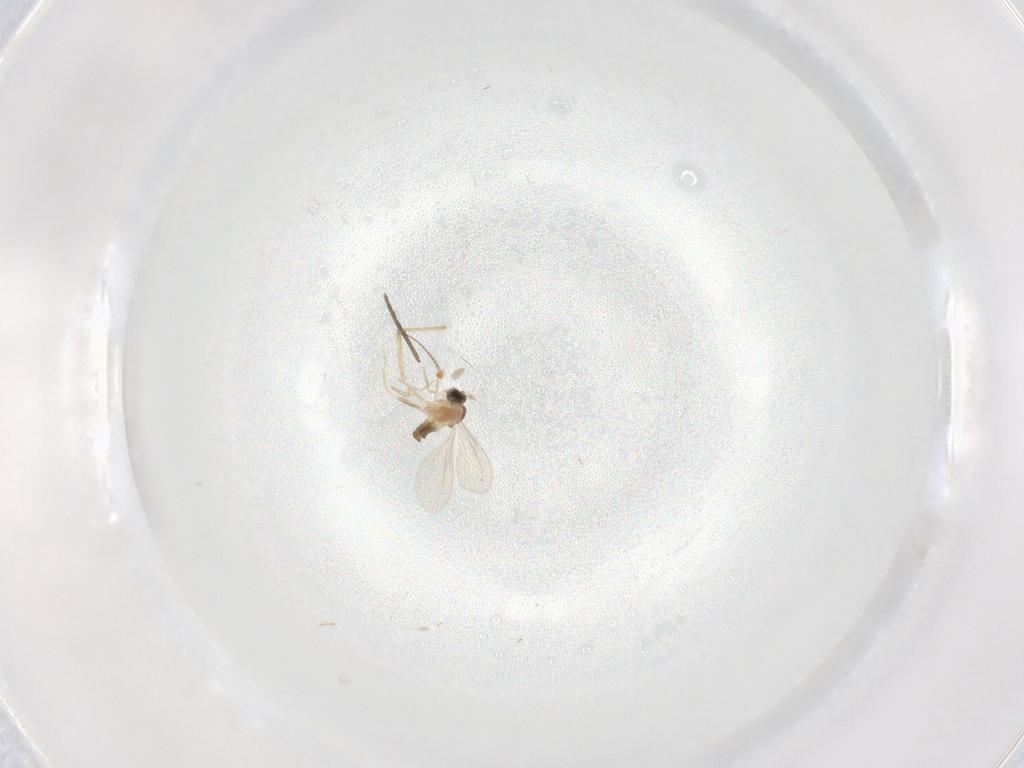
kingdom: Animalia
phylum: Arthropoda
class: Insecta
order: Diptera
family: Cecidomyiidae
